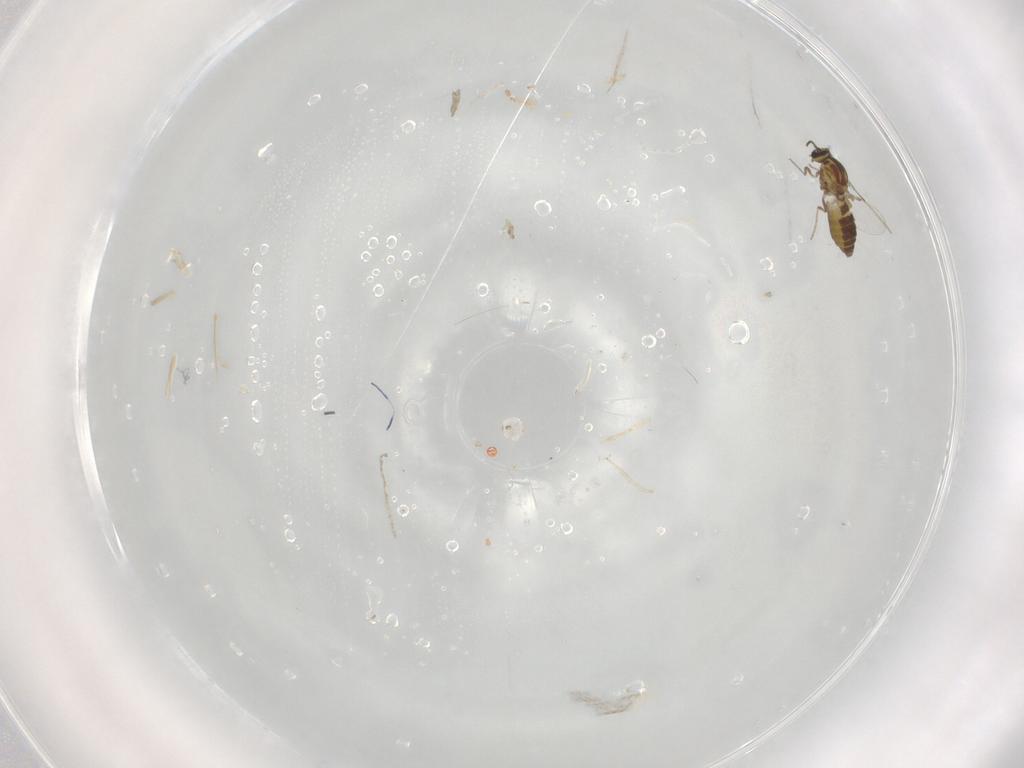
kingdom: Animalia
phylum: Arthropoda
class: Insecta
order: Diptera
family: Ceratopogonidae
